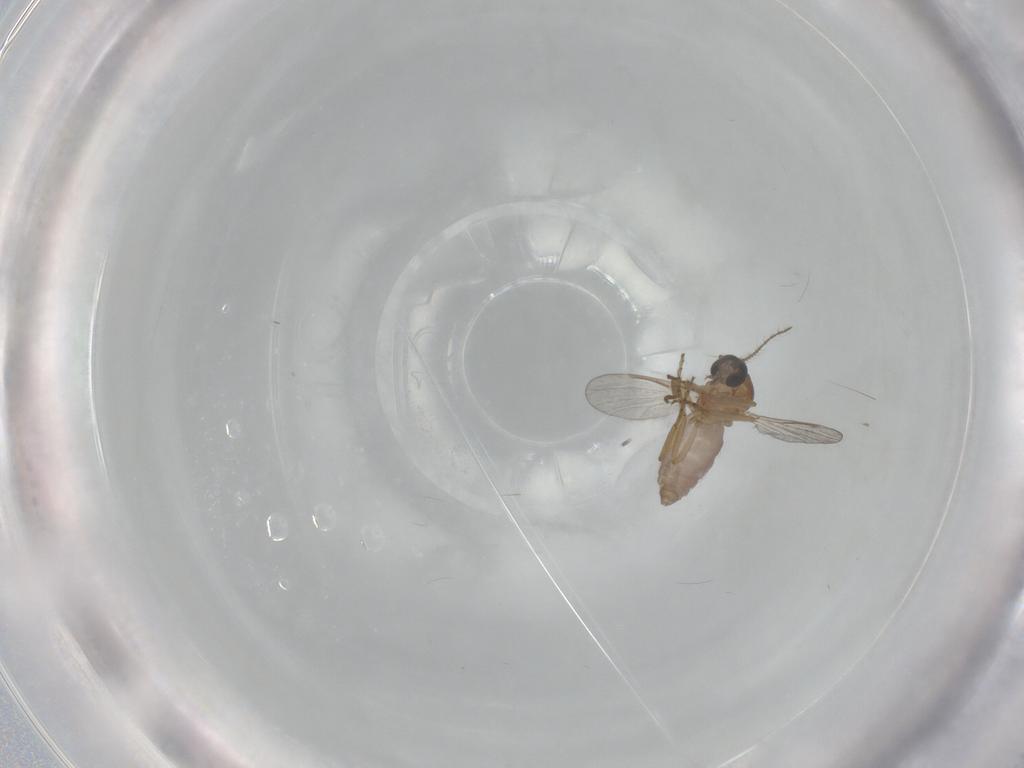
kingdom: Animalia
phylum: Arthropoda
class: Insecta
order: Diptera
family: Ceratopogonidae
